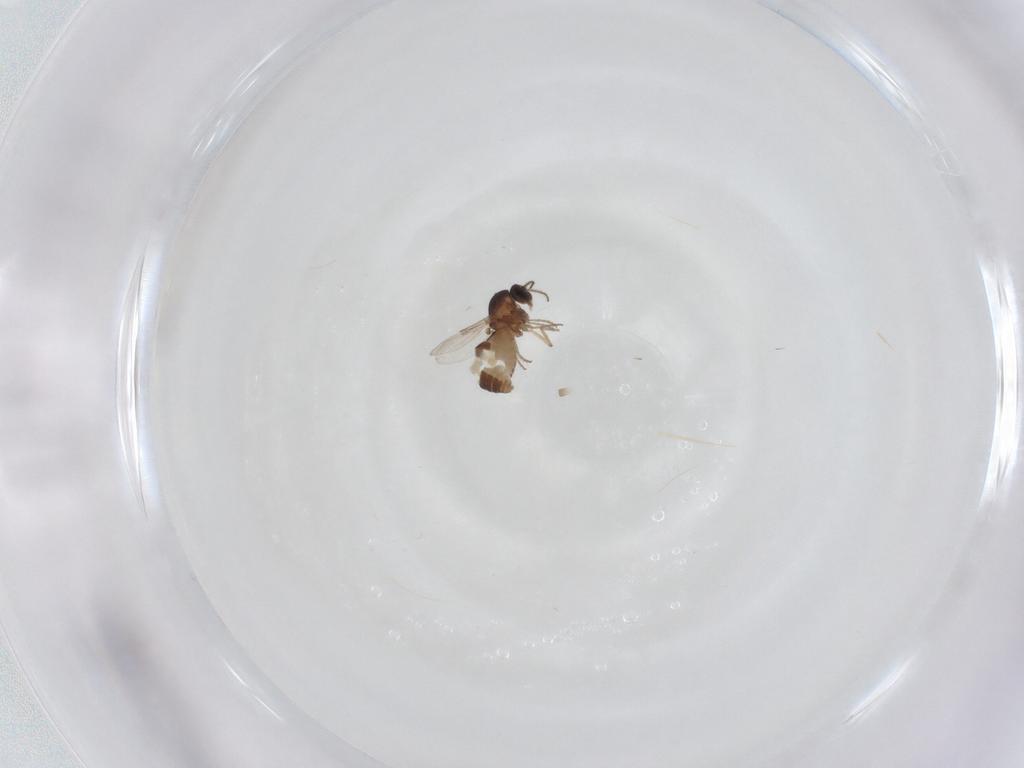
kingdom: Animalia
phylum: Arthropoda
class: Insecta
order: Diptera
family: Ceratopogonidae
